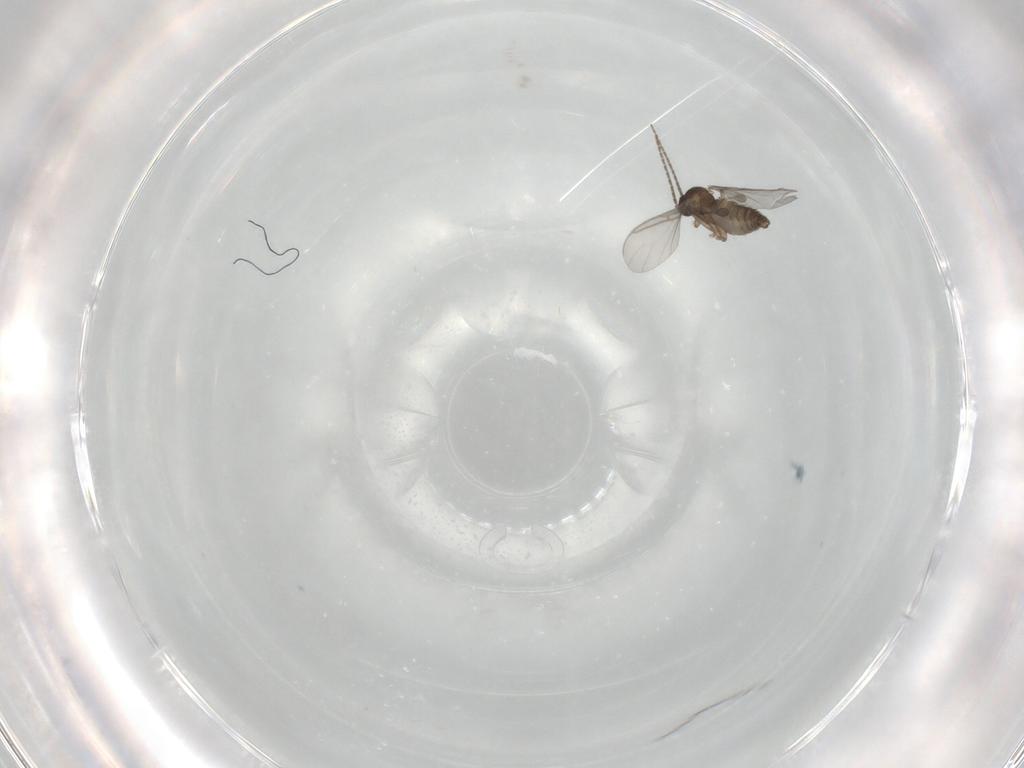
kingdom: Animalia
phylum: Arthropoda
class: Insecta
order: Diptera
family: Sciaridae
